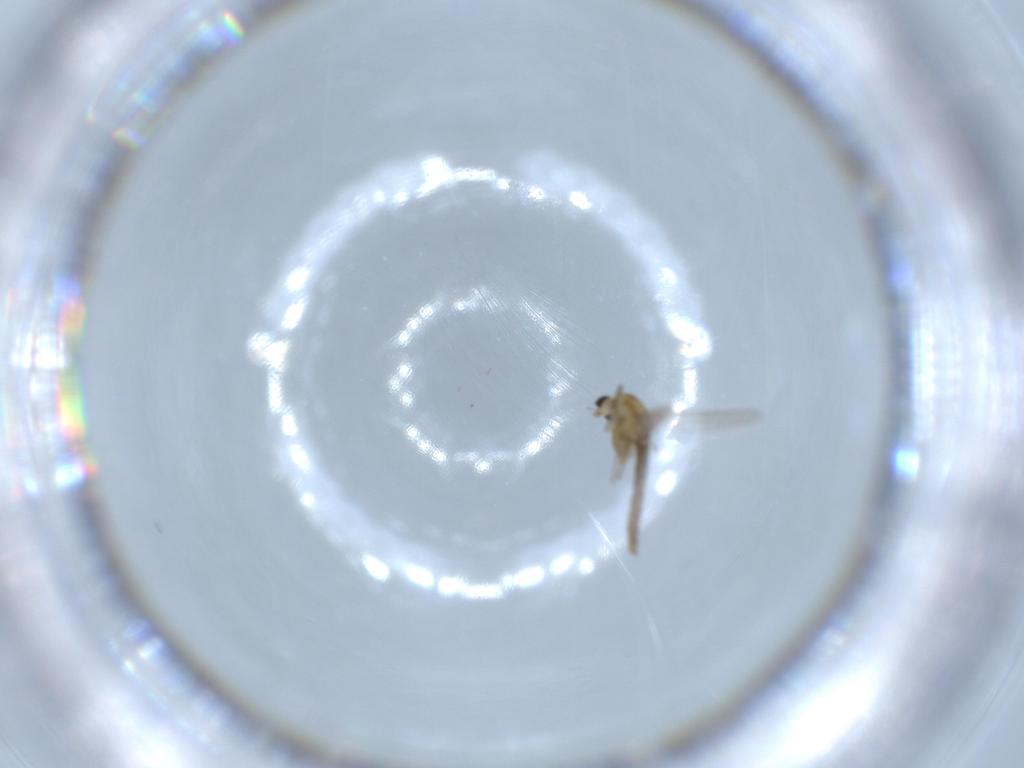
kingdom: Animalia
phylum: Arthropoda
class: Insecta
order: Diptera
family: Chironomidae
